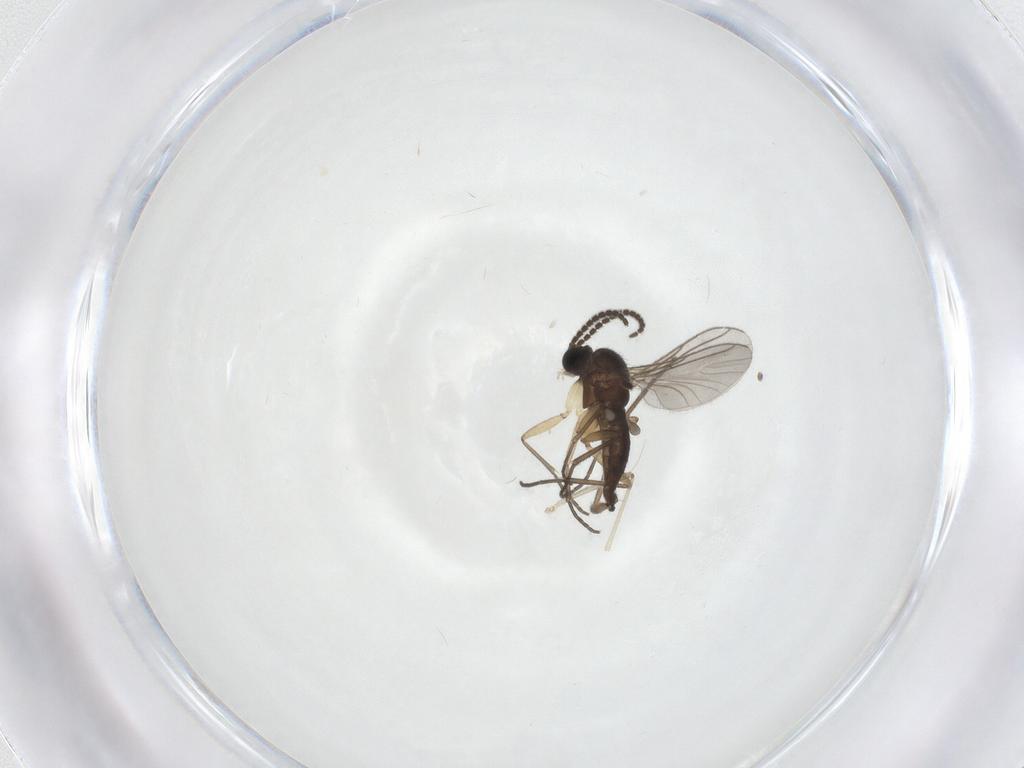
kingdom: Animalia
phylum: Arthropoda
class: Insecta
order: Diptera
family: Sciaridae
